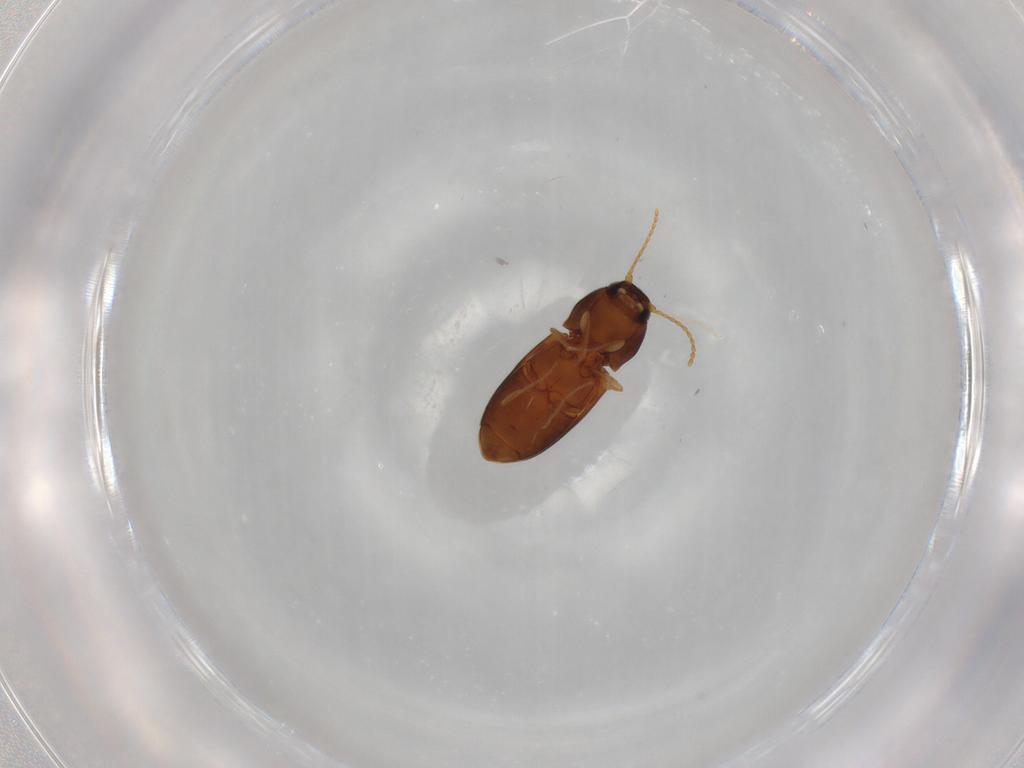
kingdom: Animalia
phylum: Arthropoda
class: Insecta
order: Coleoptera
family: Elateridae
